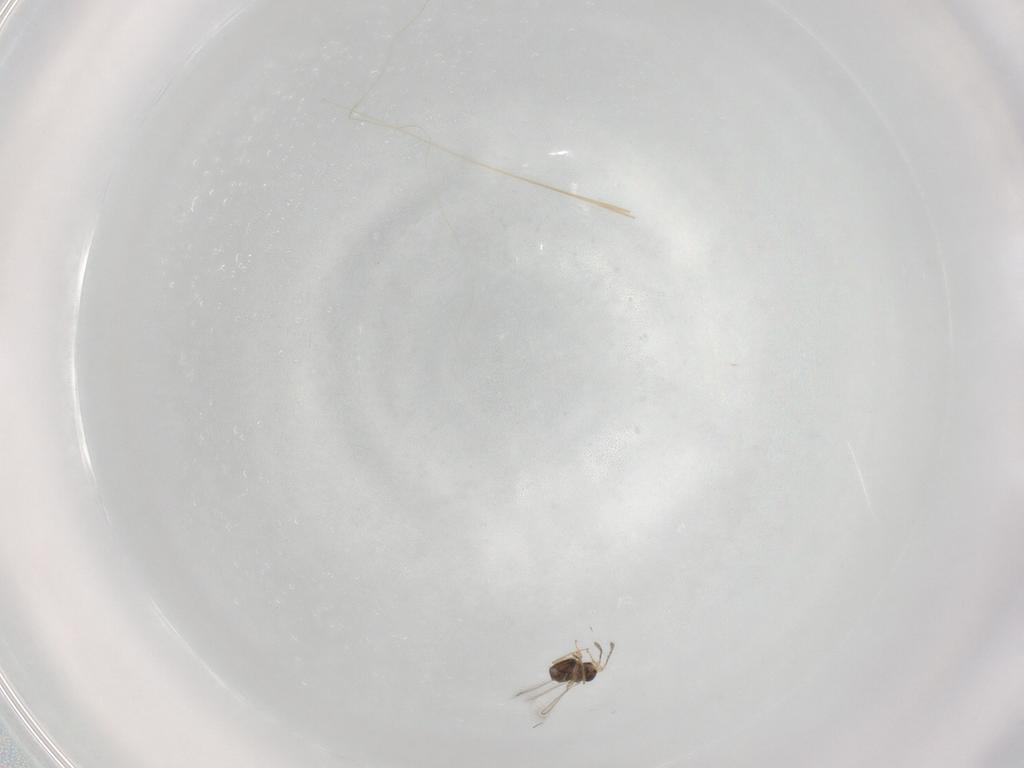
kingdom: Animalia
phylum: Arthropoda
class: Insecta
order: Hymenoptera
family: Mymaridae
